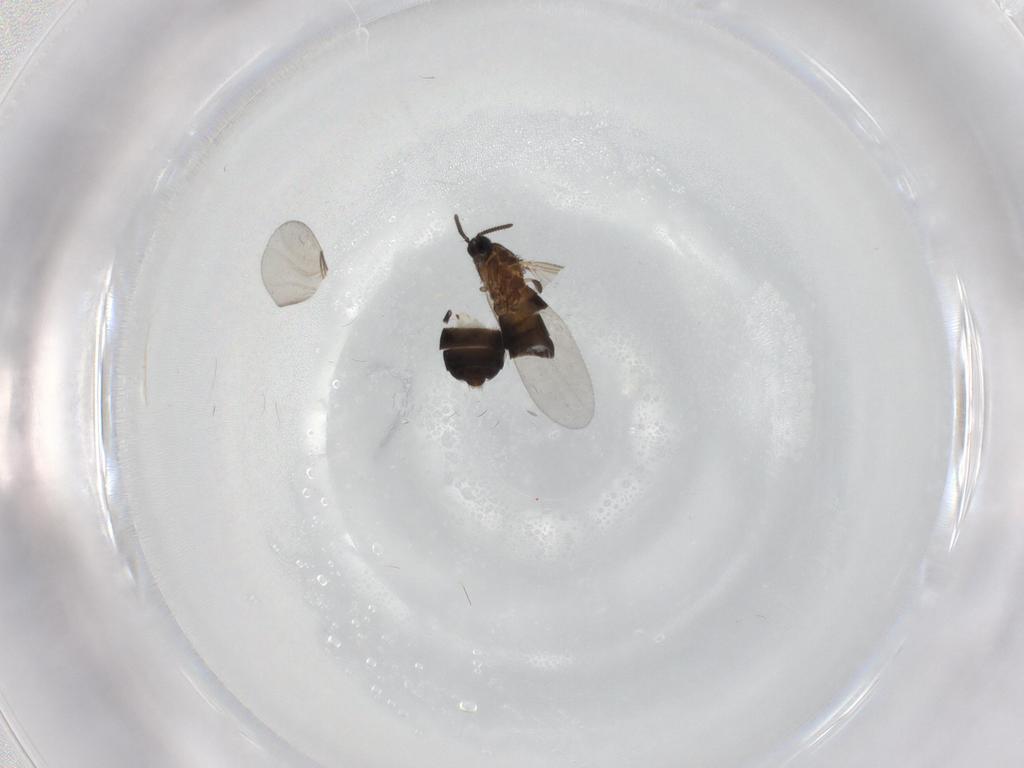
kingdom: Animalia
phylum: Arthropoda
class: Insecta
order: Diptera
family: Scatopsidae
